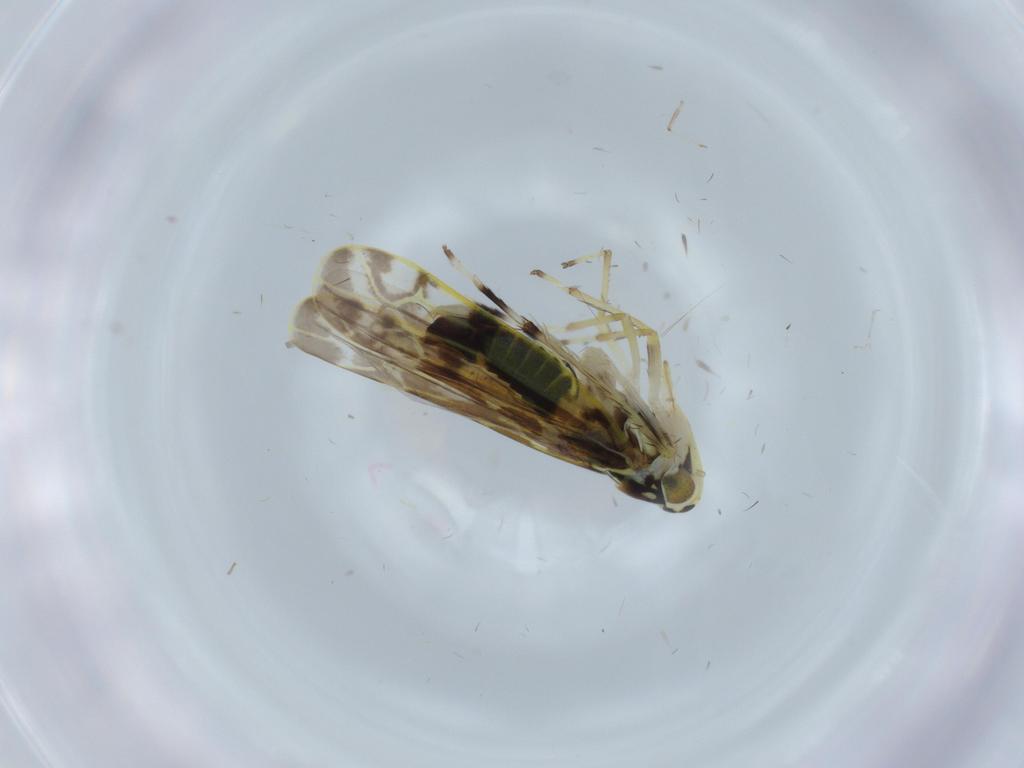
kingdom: Animalia
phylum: Arthropoda
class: Insecta
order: Hemiptera
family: Cicadellidae
